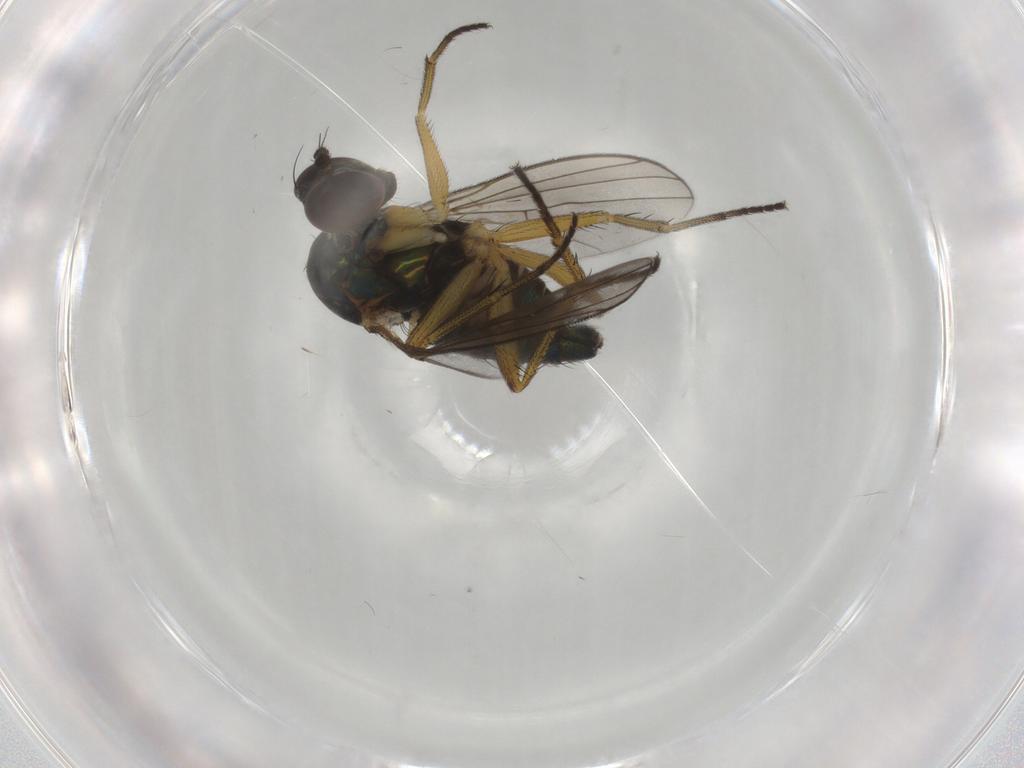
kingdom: Animalia
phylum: Arthropoda
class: Insecta
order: Diptera
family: Dolichopodidae
